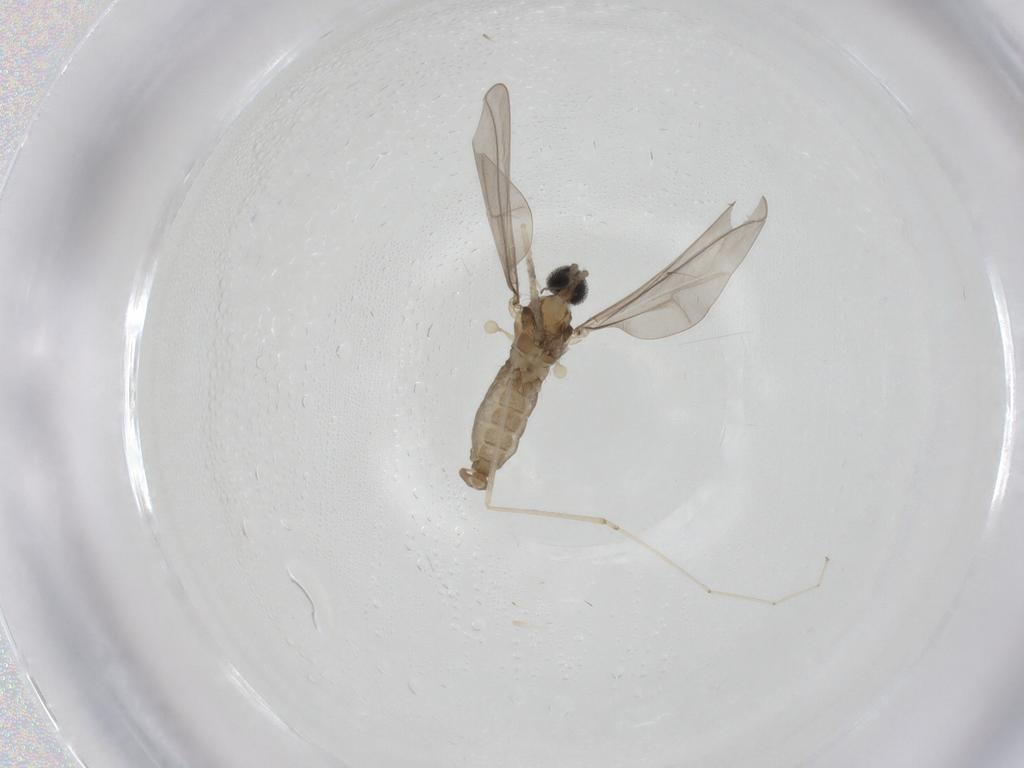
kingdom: Animalia
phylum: Arthropoda
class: Insecta
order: Diptera
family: Cecidomyiidae
